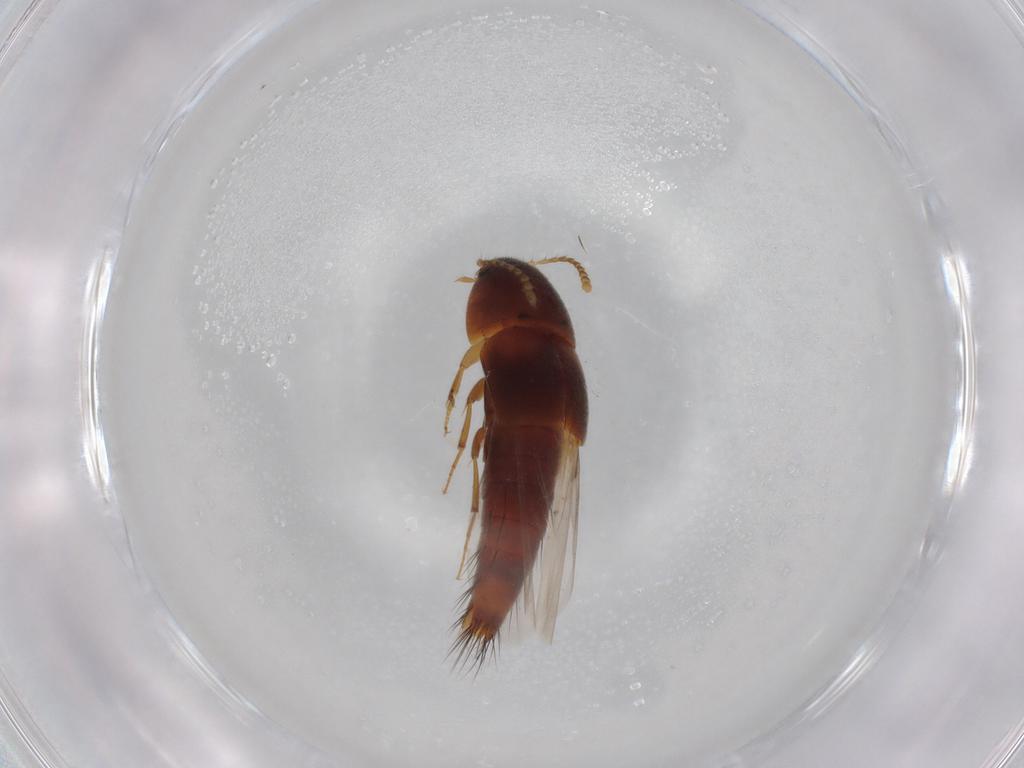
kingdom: Animalia
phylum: Arthropoda
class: Insecta
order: Coleoptera
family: Staphylinidae
